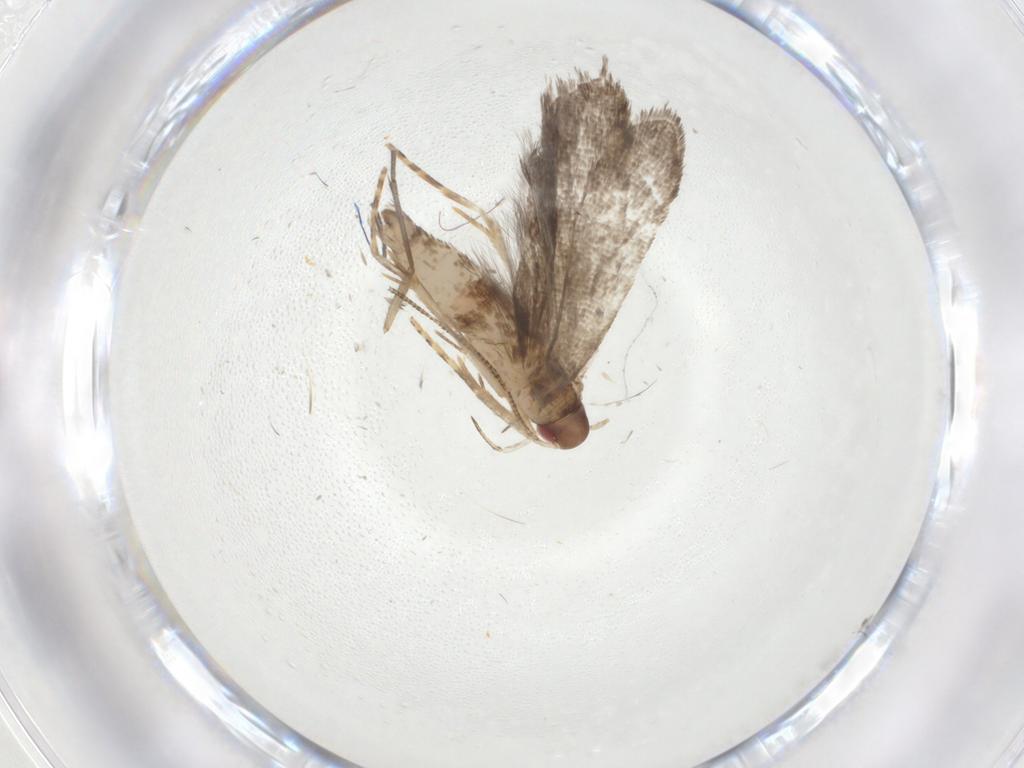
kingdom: Animalia
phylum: Arthropoda
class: Insecta
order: Lepidoptera
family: Gelechiidae
